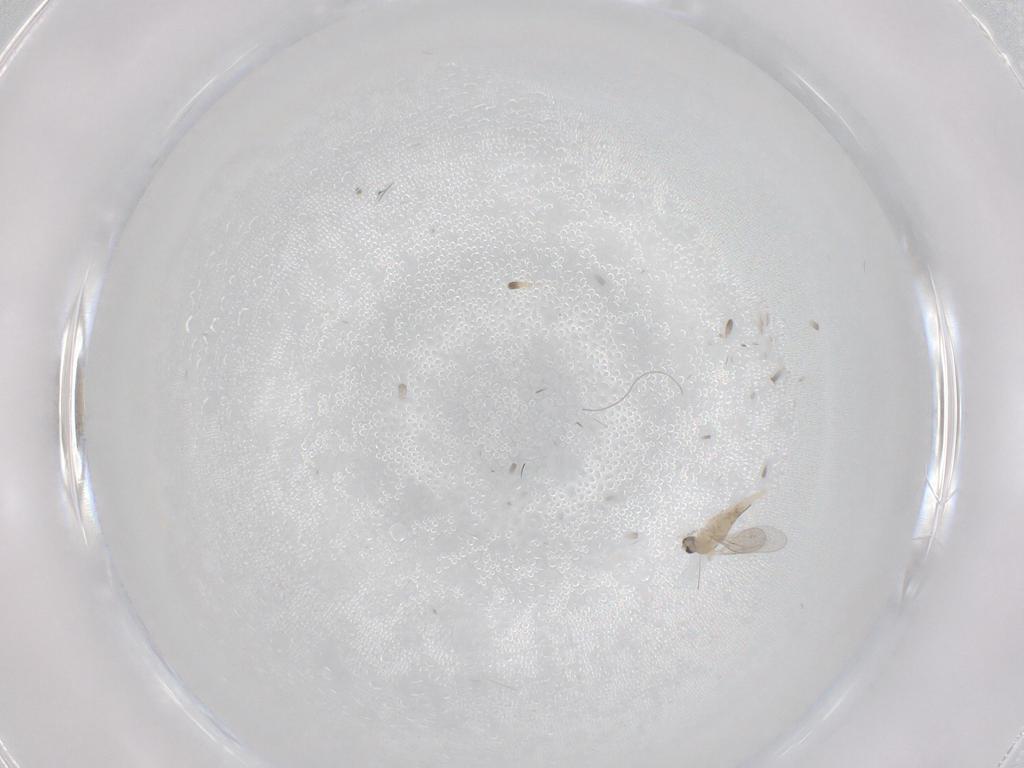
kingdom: Animalia
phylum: Arthropoda
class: Insecta
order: Diptera
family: Cecidomyiidae
